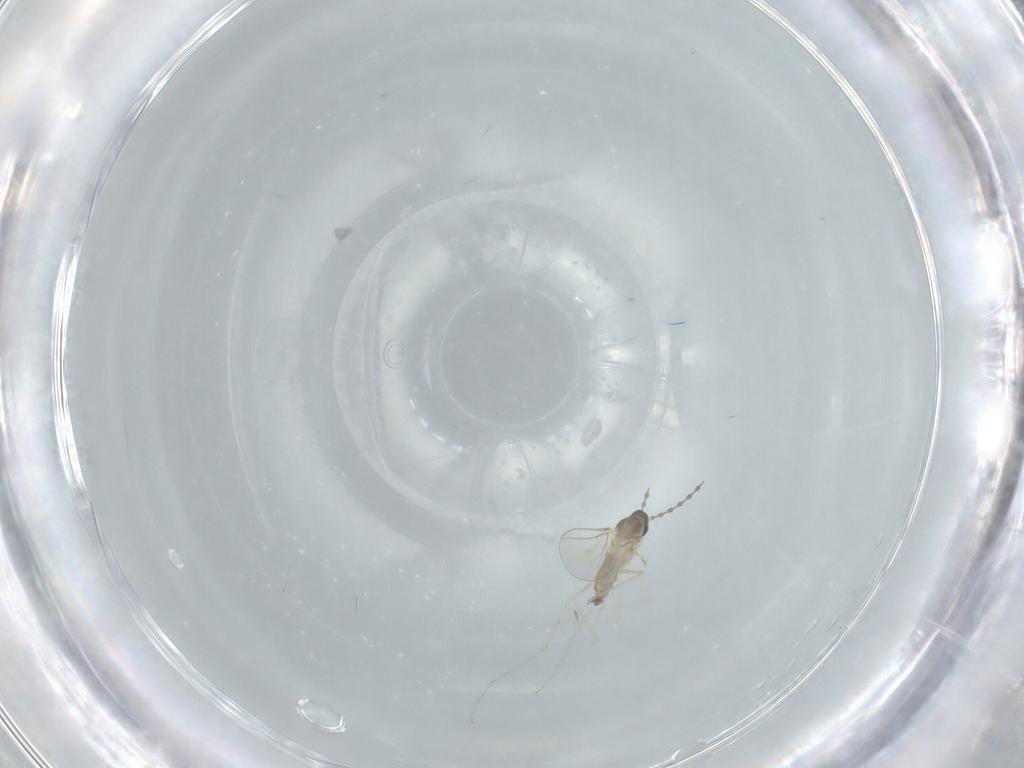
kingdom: Animalia
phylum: Arthropoda
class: Insecta
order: Diptera
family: Cecidomyiidae
